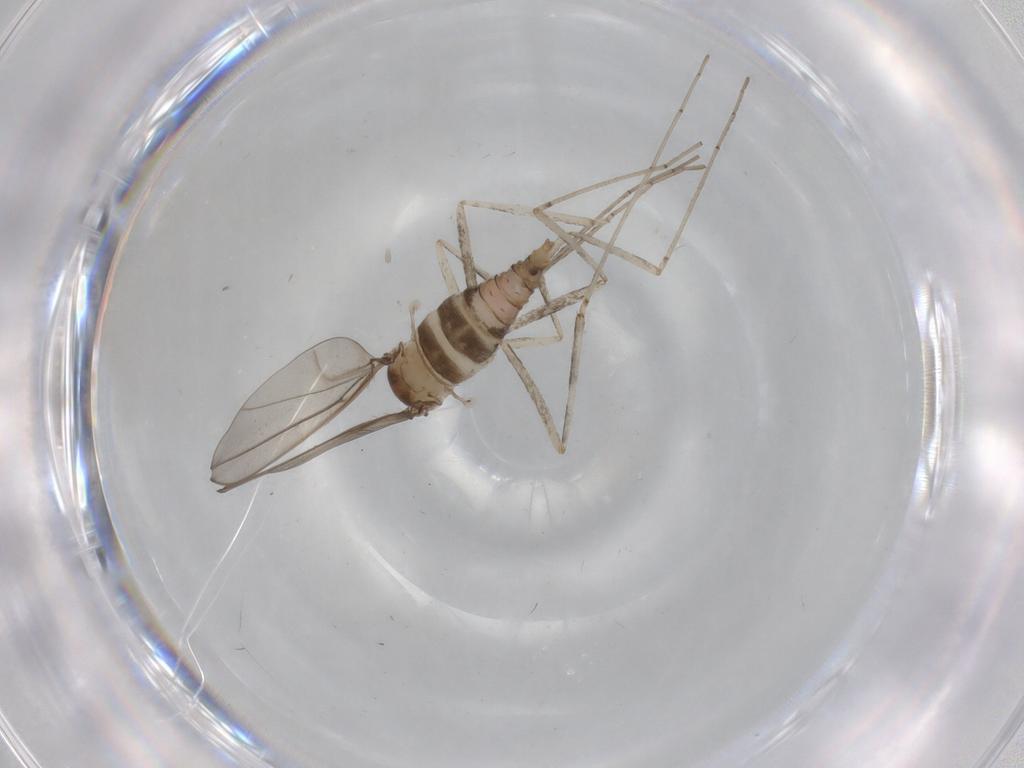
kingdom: Animalia
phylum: Arthropoda
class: Insecta
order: Diptera
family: Cecidomyiidae
